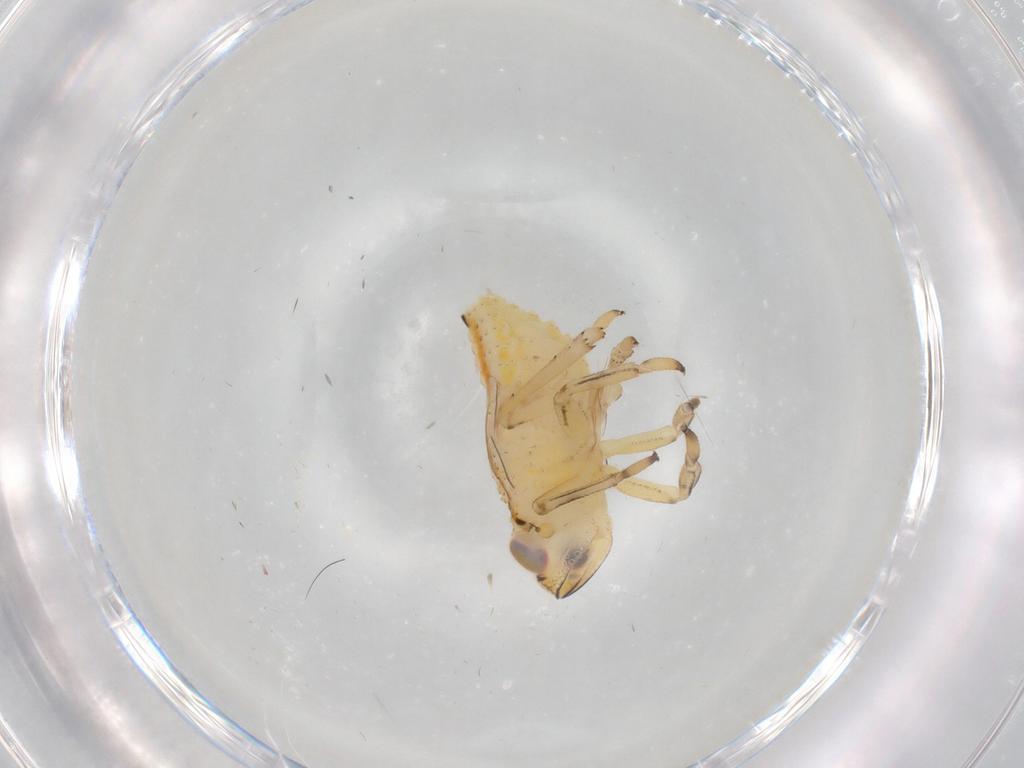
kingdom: Animalia
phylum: Arthropoda
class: Insecta
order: Hemiptera
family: Issidae
